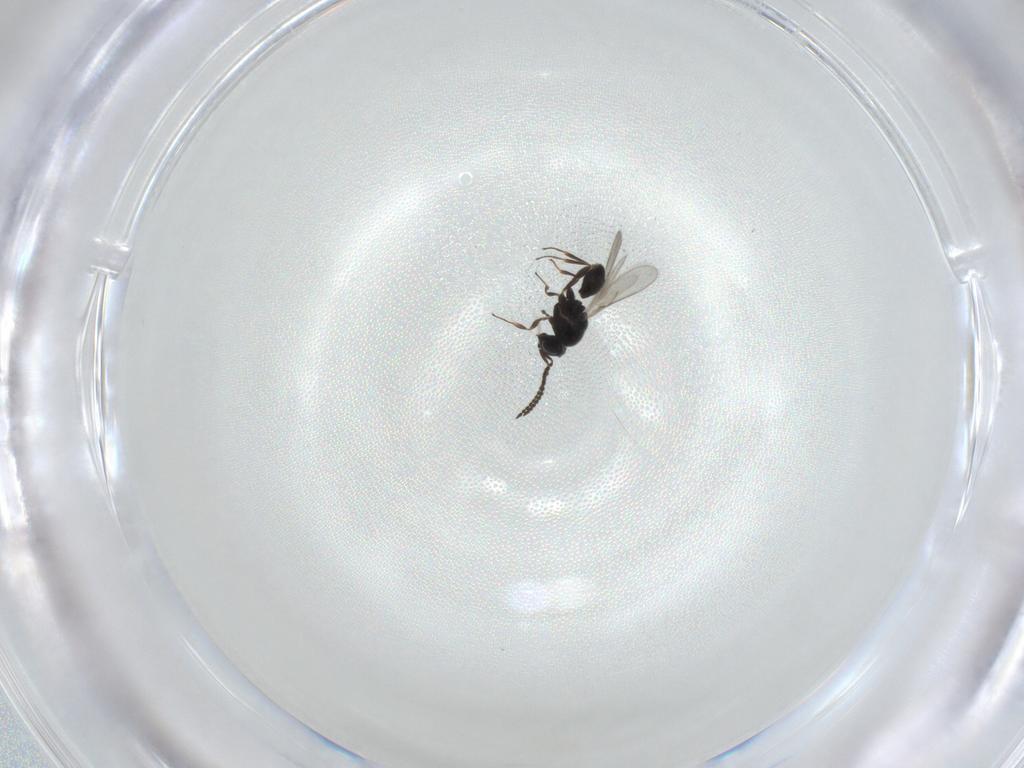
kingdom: Animalia
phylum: Arthropoda
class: Insecta
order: Hymenoptera
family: Scelionidae
